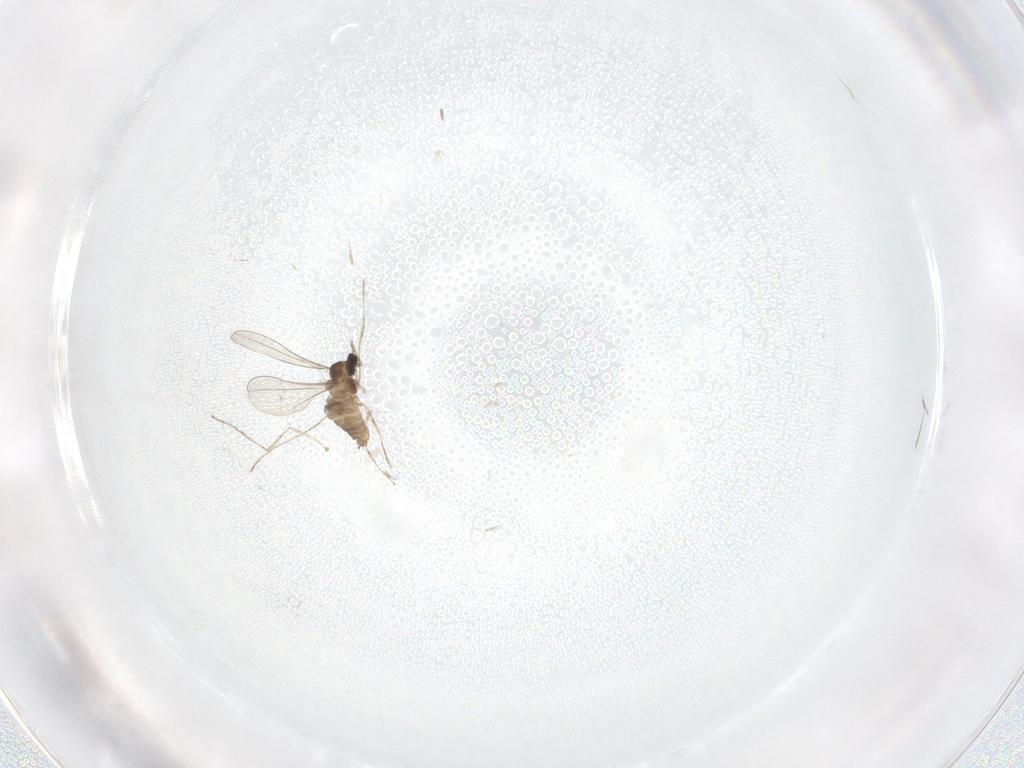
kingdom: Animalia
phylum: Arthropoda
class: Insecta
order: Diptera
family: Cecidomyiidae
